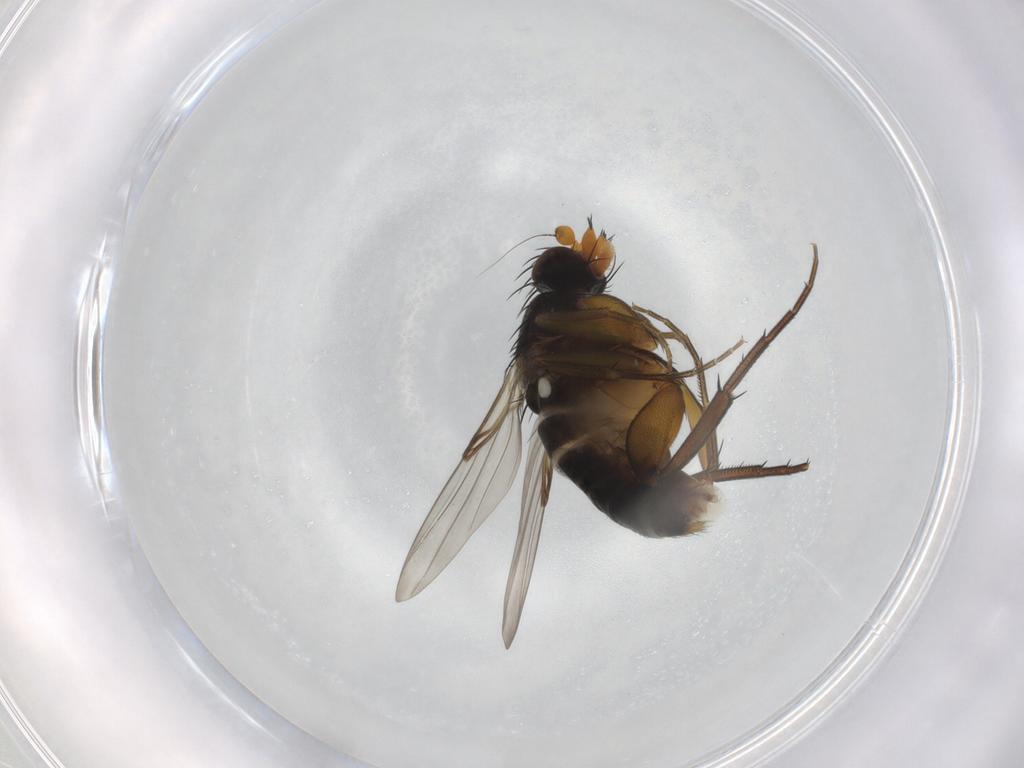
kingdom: Animalia
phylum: Arthropoda
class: Insecta
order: Diptera
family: Phoridae
